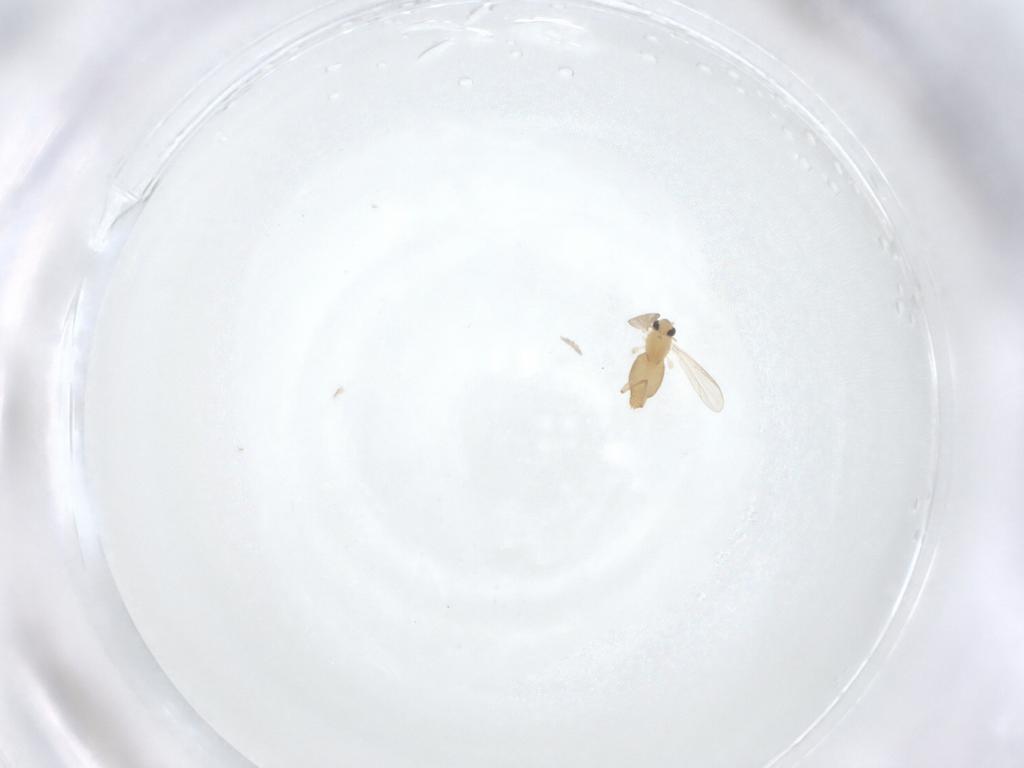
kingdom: Animalia
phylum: Arthropoda
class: Insecta
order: Diptera
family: Chironomidae
